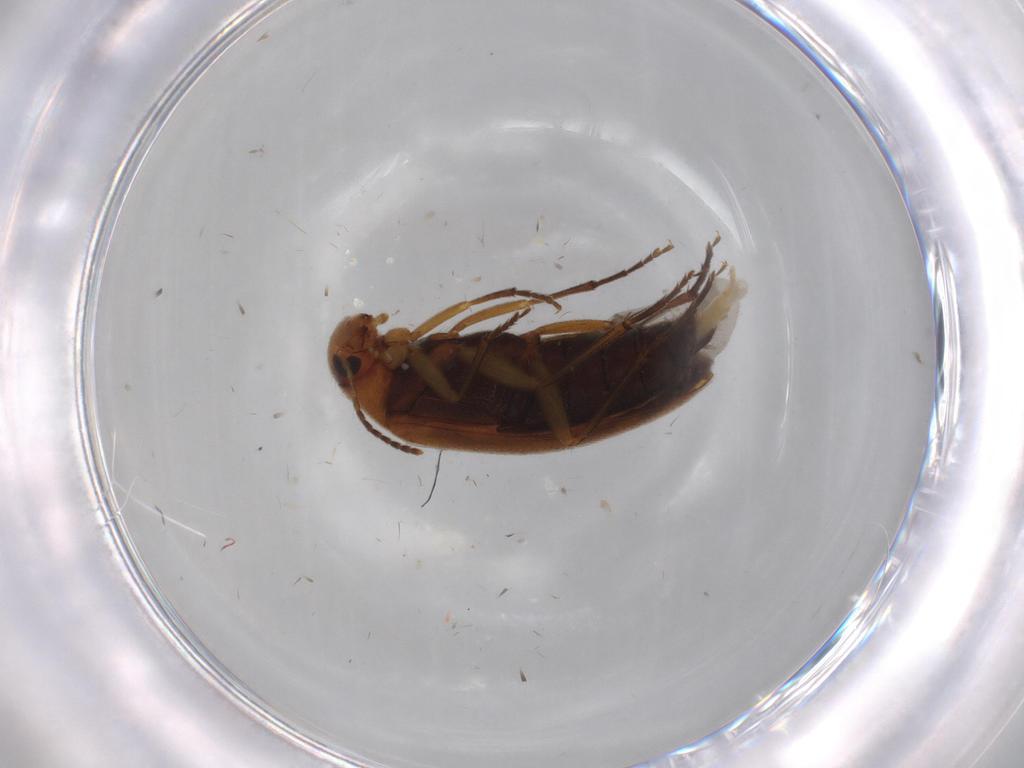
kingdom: Animalia
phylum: Arthropoda
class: Insecta
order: Coleoptera
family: Melandryidae
